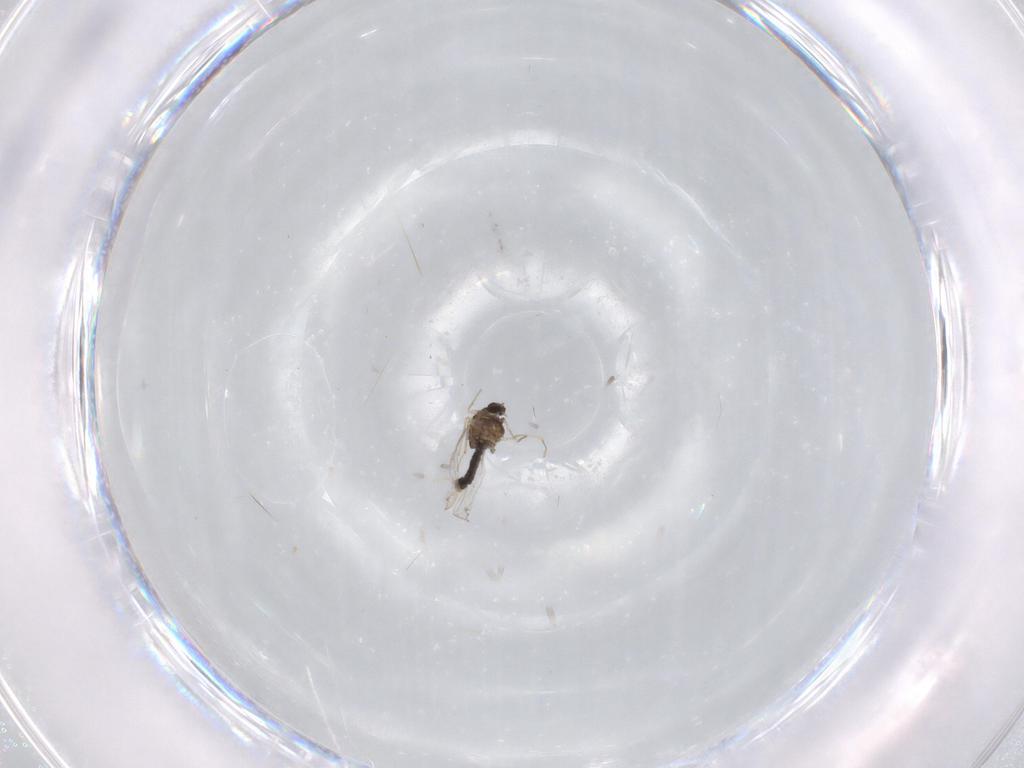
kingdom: Animalia
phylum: Arthropoda
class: Insecta
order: Diptera
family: Chironomidae
